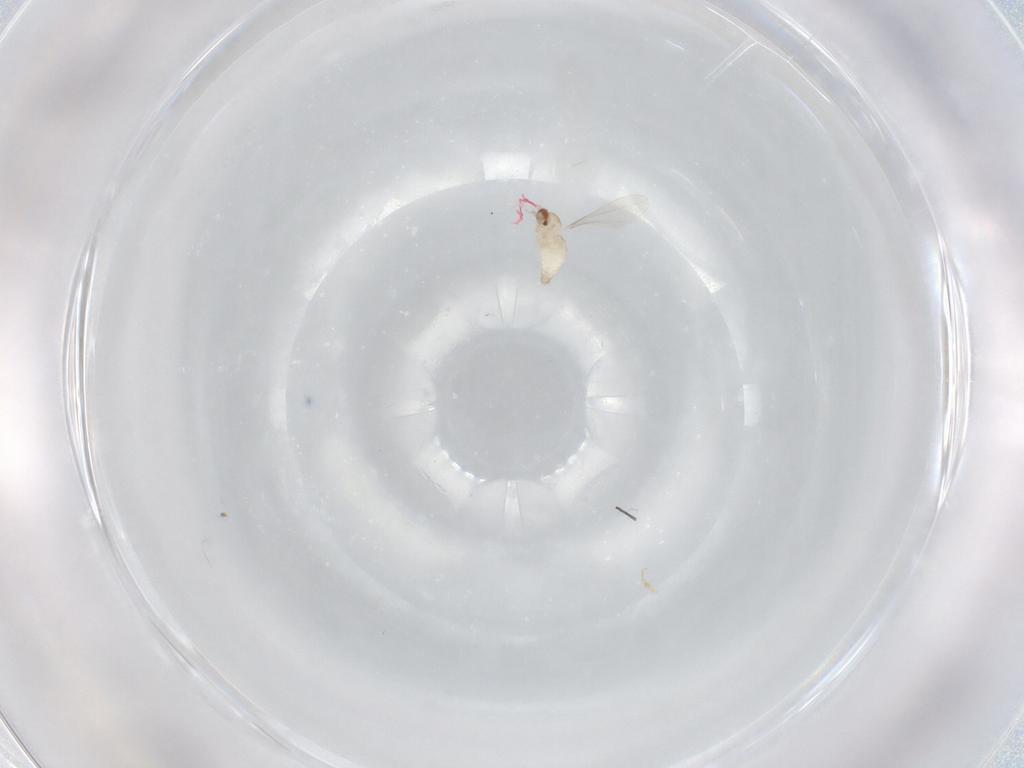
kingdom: Animalia
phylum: Arthropoda
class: Insecta
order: Diptera
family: Cecidomyiidae
